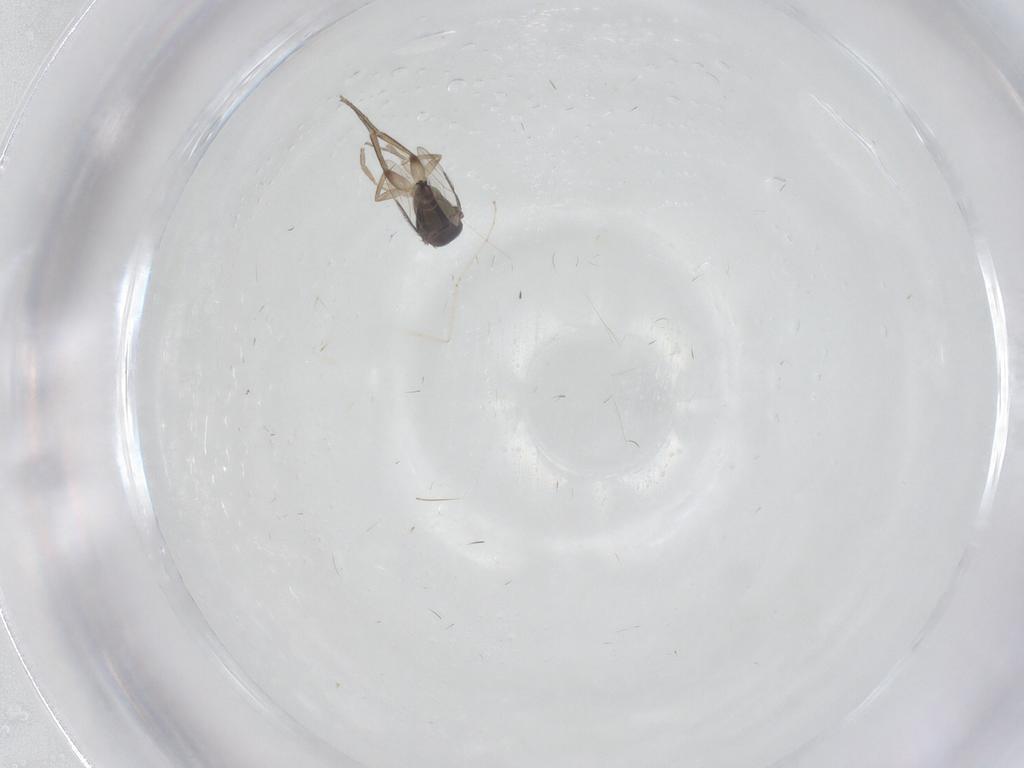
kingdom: Animalia
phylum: Arthropoda
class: Insecta
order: Diptera
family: Phoridae
